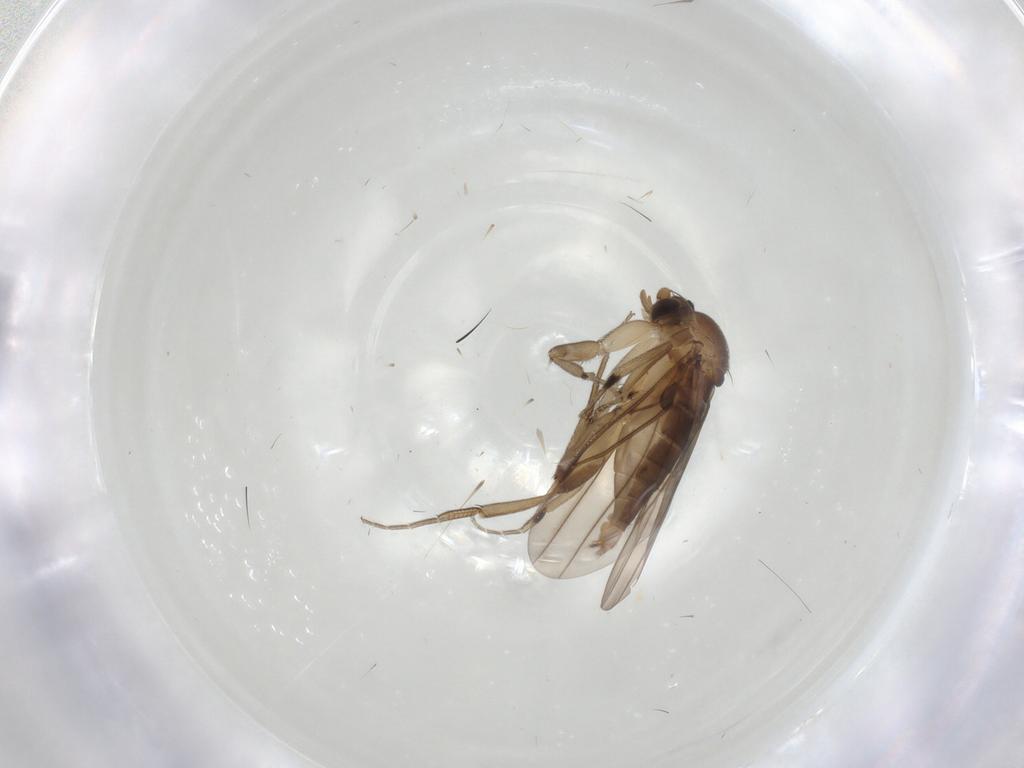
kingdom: Animalia
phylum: Arthropoda
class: Insecta
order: Diptera
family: Phoridae
